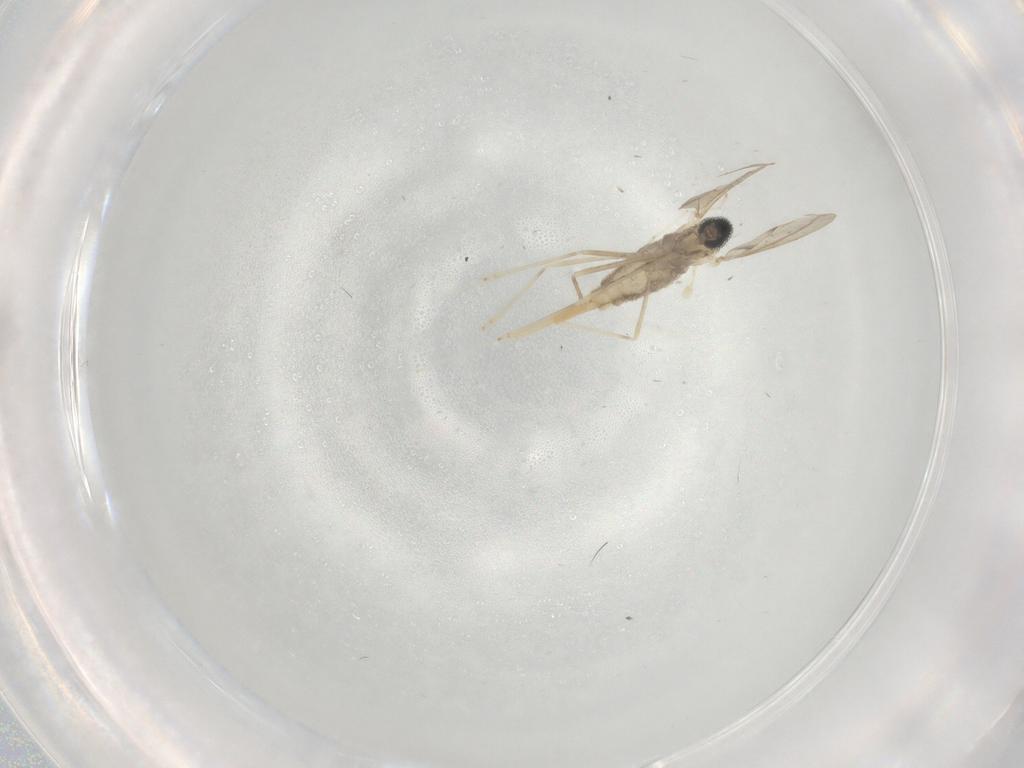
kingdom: Animalia
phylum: Arthropoda
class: Insecta
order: Diptera
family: Cecidomyiidae
